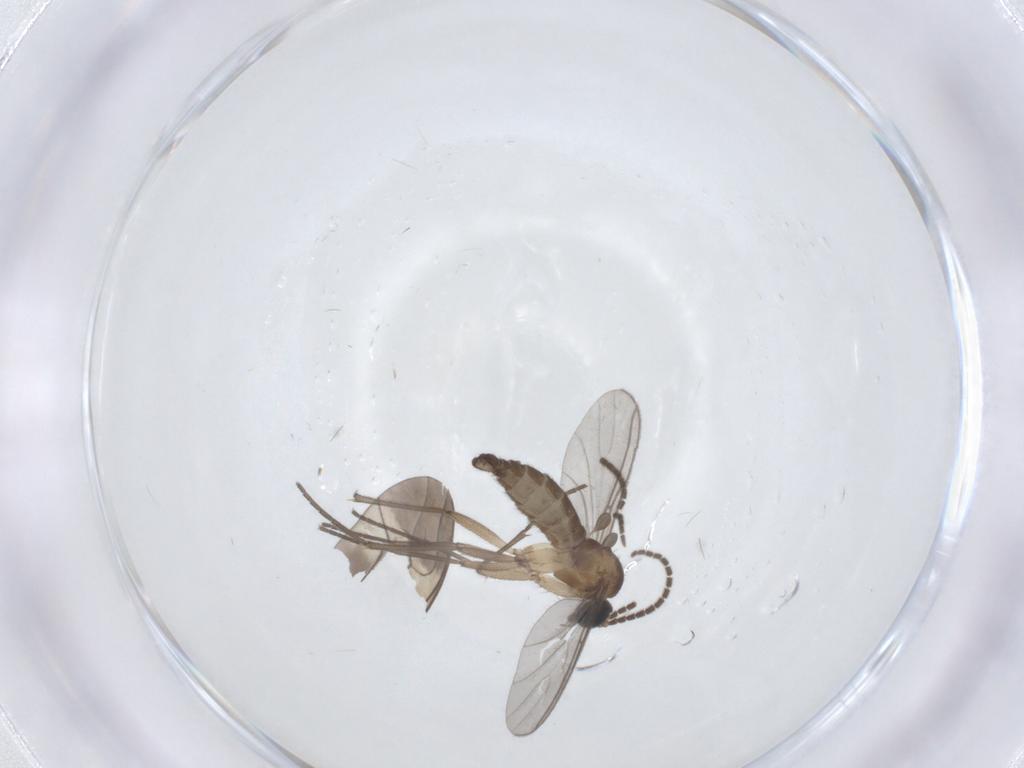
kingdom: Animalia
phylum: Arthropoda
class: Insecta
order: Diptera
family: Sciaridae
